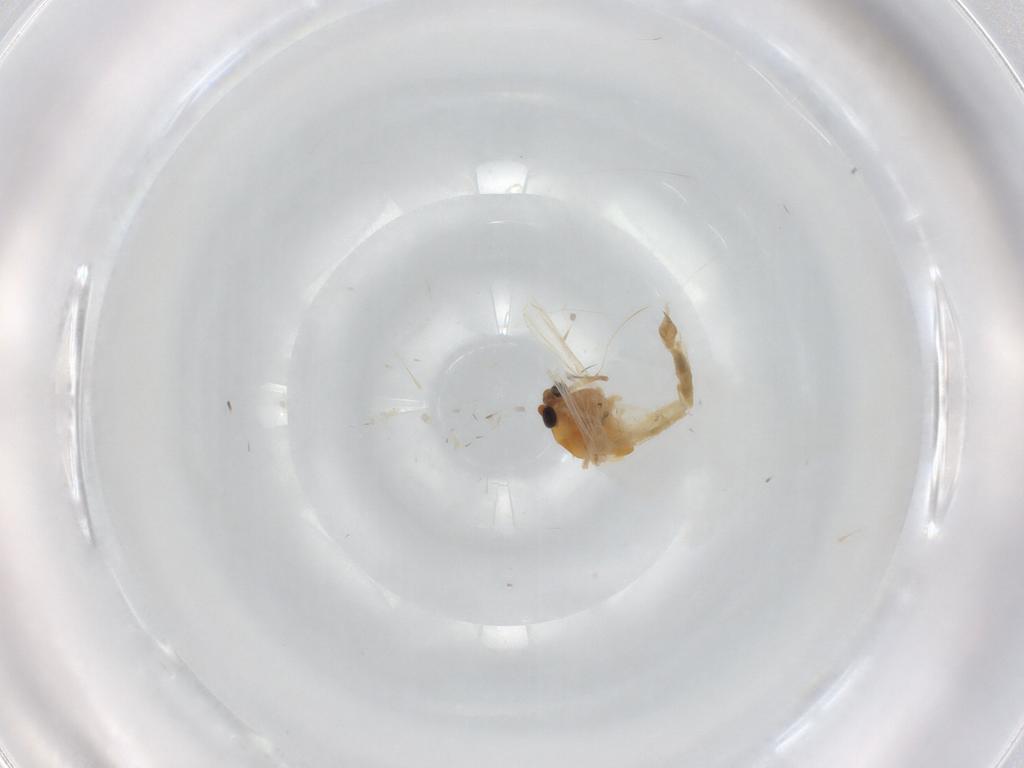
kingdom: Animalia
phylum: Arthropoda
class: Insecta
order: Diptera
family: Chironomidae
